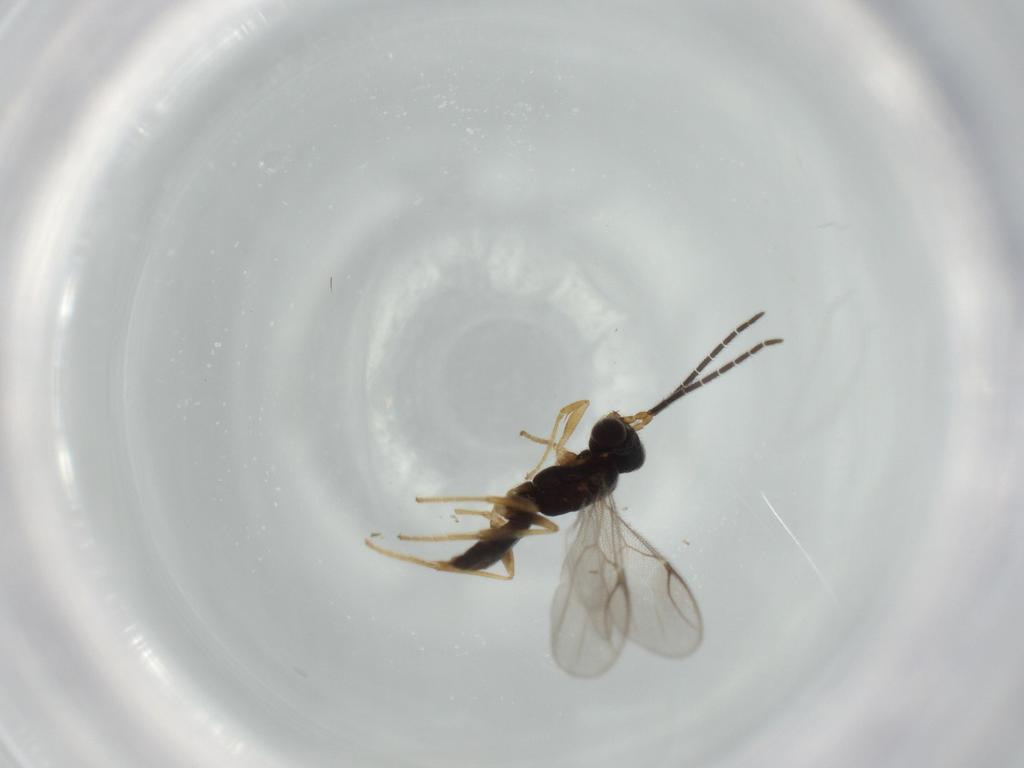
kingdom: Animalia
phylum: Arthropoda
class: Insecta
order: Hymenoptera
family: Dryinidae
